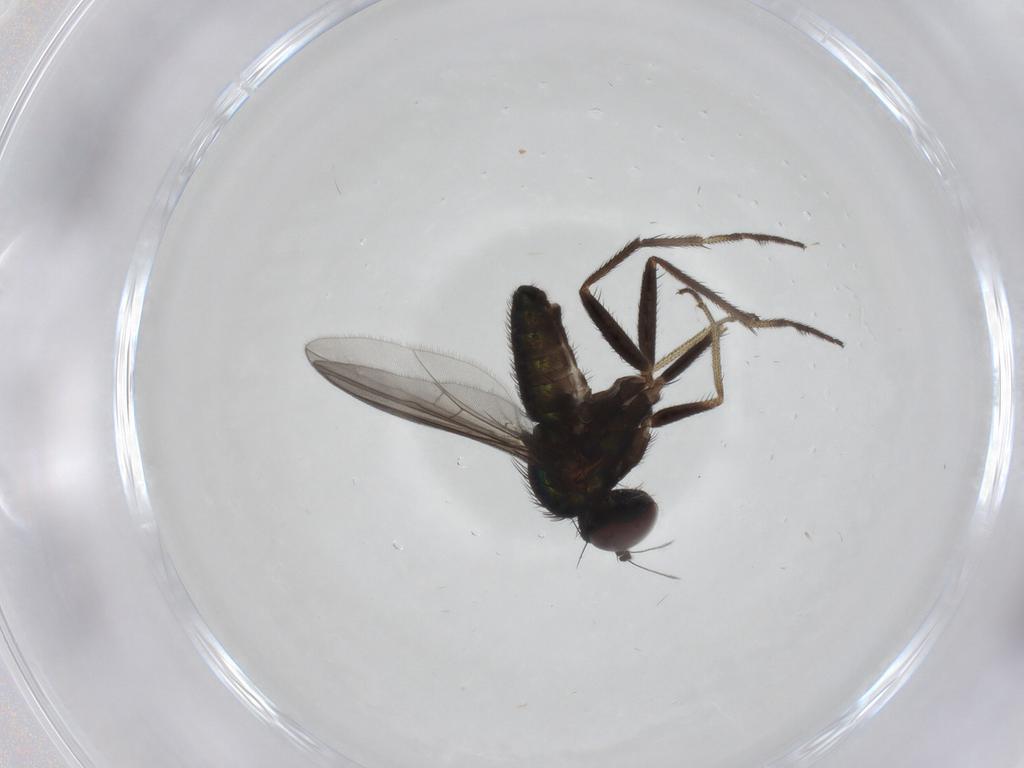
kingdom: Animalia
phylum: Arthropoda
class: Insecta
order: Diptera
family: Dolichopodidae
